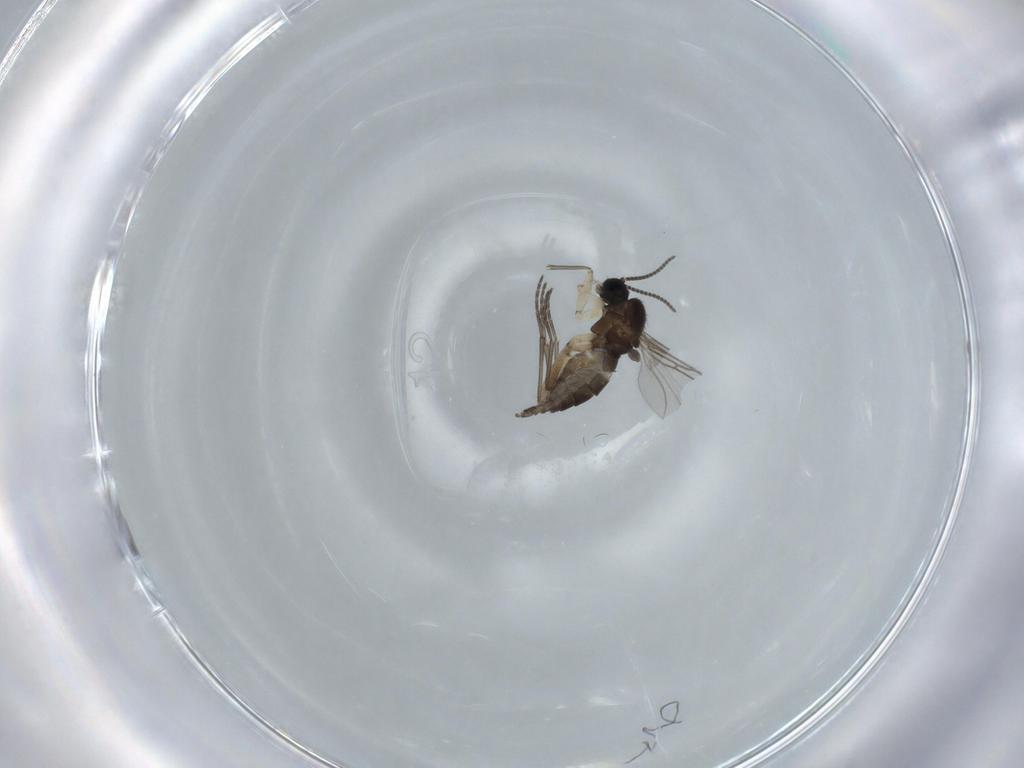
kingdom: Animalia
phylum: Arthropoda
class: Insecta
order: Diptera
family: Sciaridae
